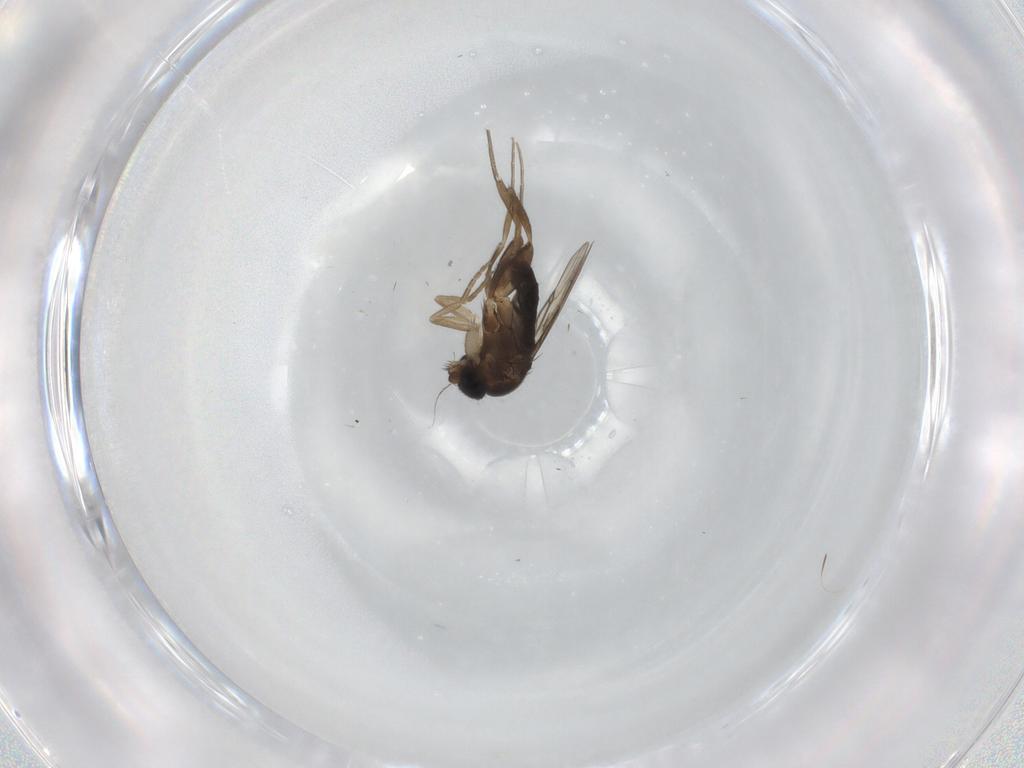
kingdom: Animalia
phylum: Arthropoda
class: Insecta
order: Diptera
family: Phoridae
